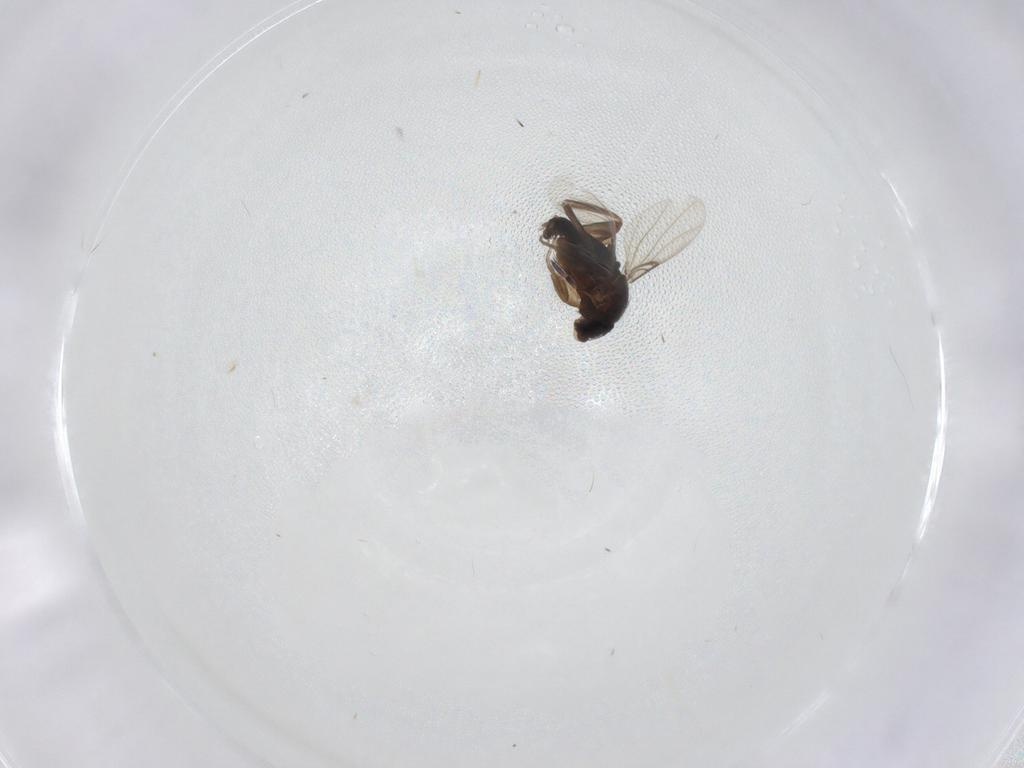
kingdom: Animalia
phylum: Arthropoda
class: Insecta
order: Diptera
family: Phoridae
